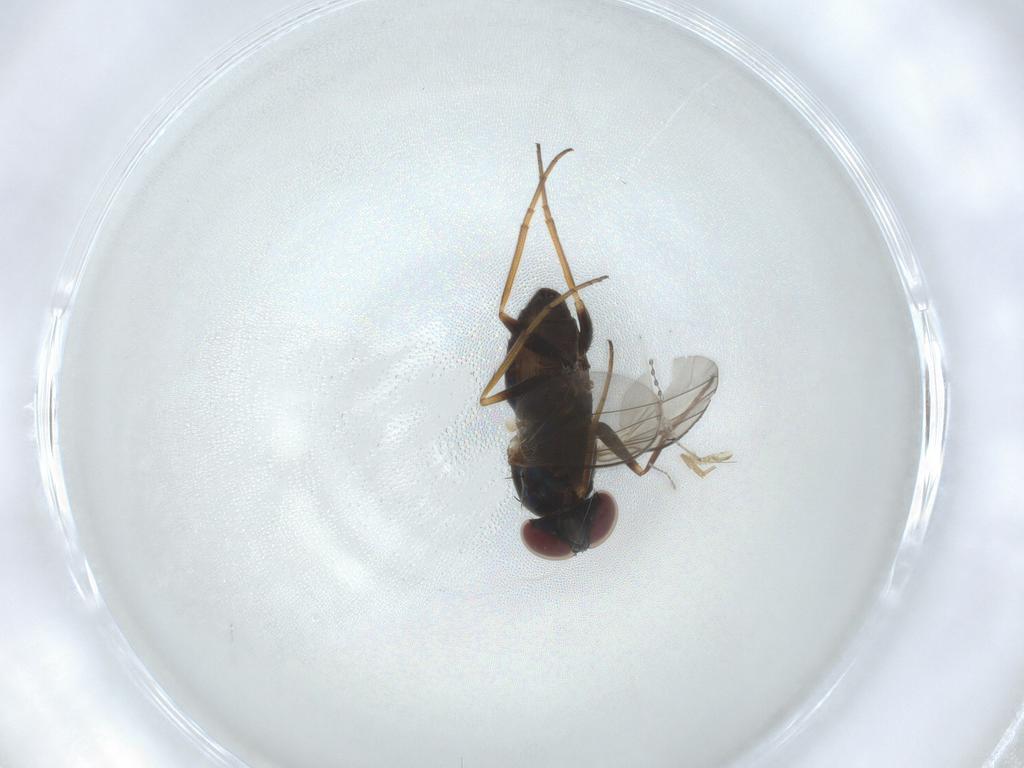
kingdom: Animalia
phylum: Arthropoda
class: Insecta
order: Diptera
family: Dolichopodidae
